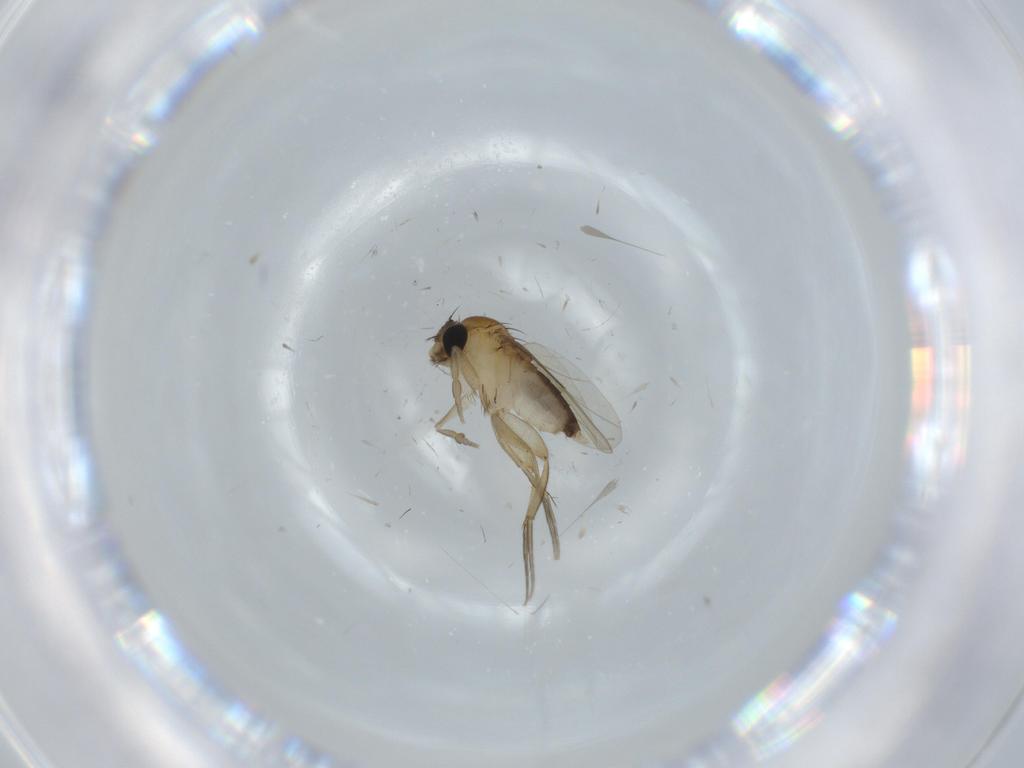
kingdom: Animalia
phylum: Arthropoda
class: Insecta
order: Diptera
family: Phoridae
